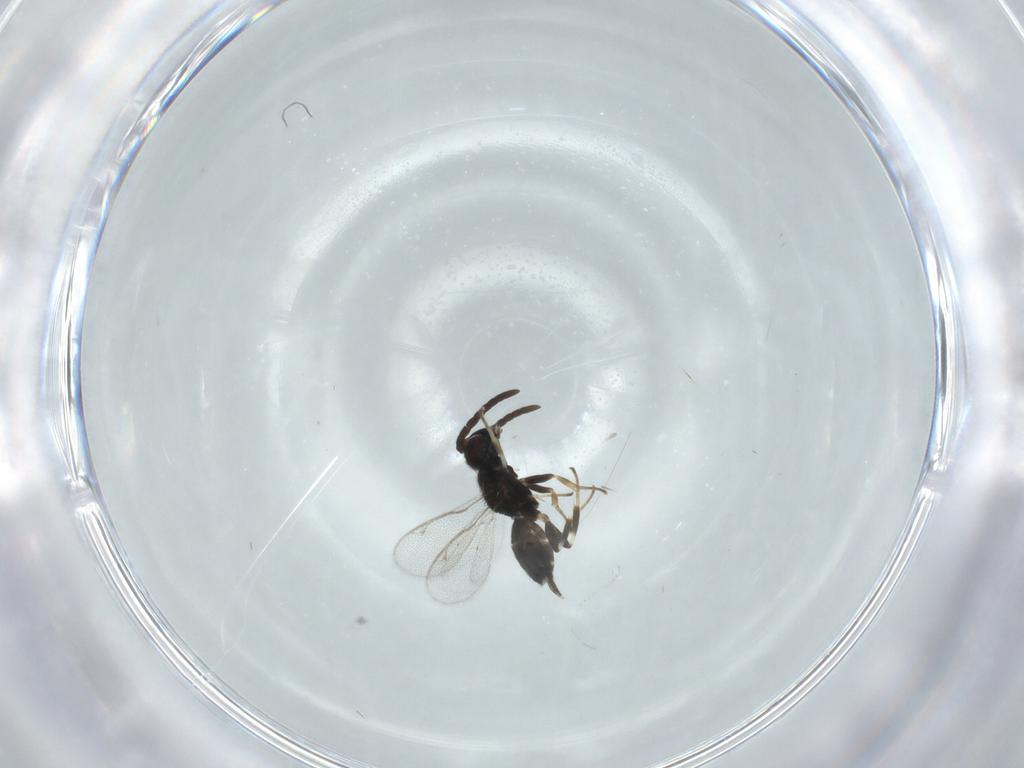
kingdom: Animalia
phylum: Arthropoda
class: Insecta
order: Hymenoptera
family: Eupelmidae
